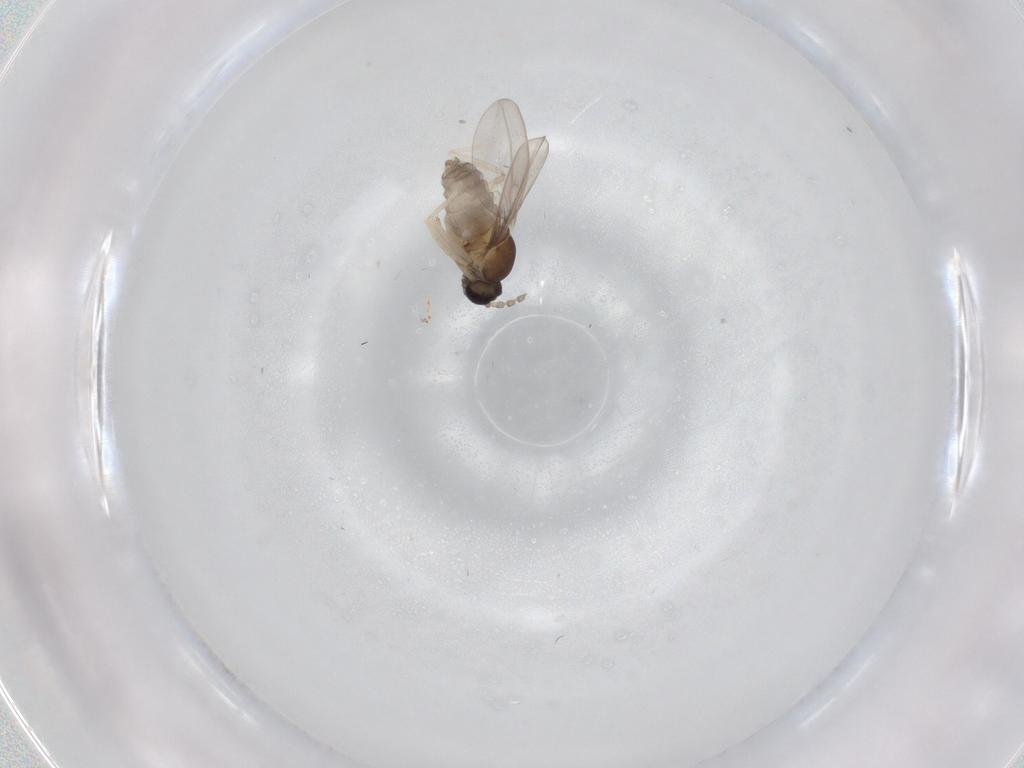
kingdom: Animalia
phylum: Arthropoda
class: Insecta
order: Diptera
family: Cecidomyiidae
